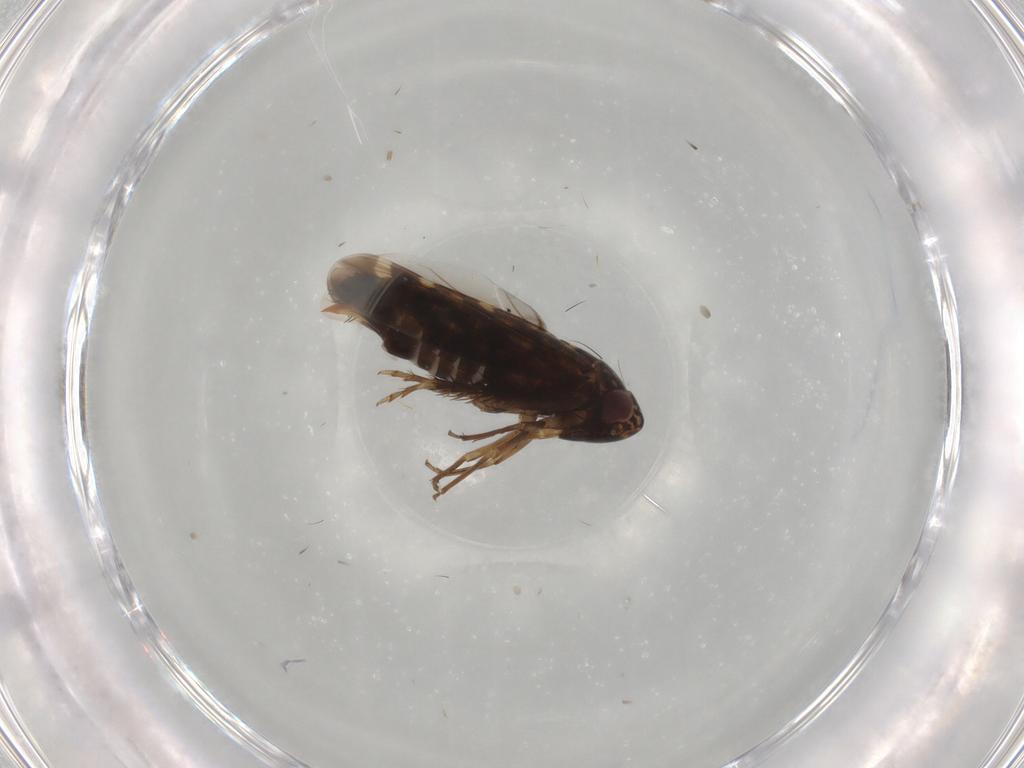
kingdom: Animalia
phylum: Arthropoda
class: Insecta
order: Hemiptera
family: Cicadellidae
